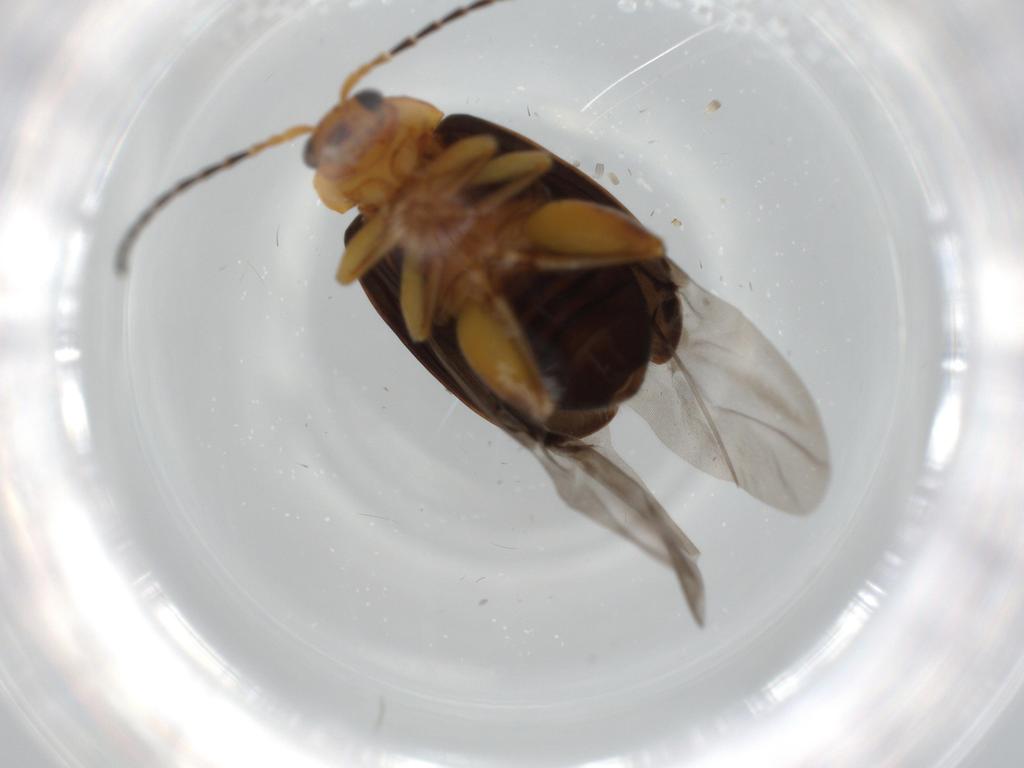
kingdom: Animalia
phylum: Arthropoda
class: Insecta
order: Coleoptera
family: Chrysomelidae
